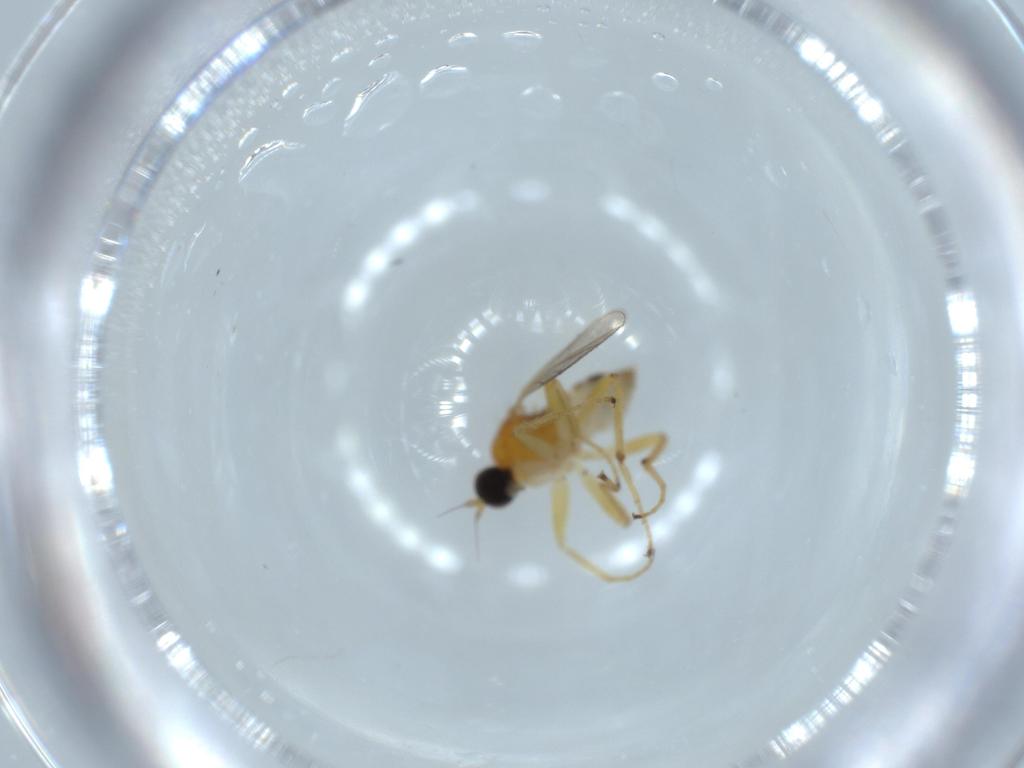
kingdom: Animalia
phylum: Arthropoda
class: Insecta
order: Diptera
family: Hybotidae
